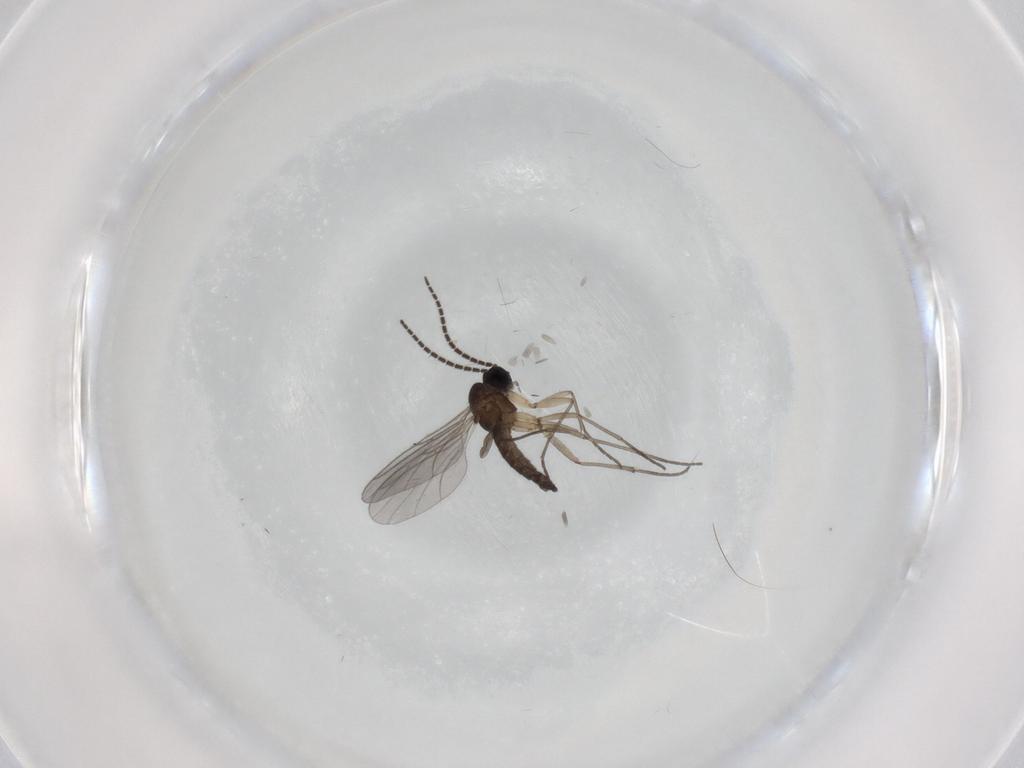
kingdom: Animalia
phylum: Arthropoda
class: Insecta
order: Diptera
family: Sciaridae
